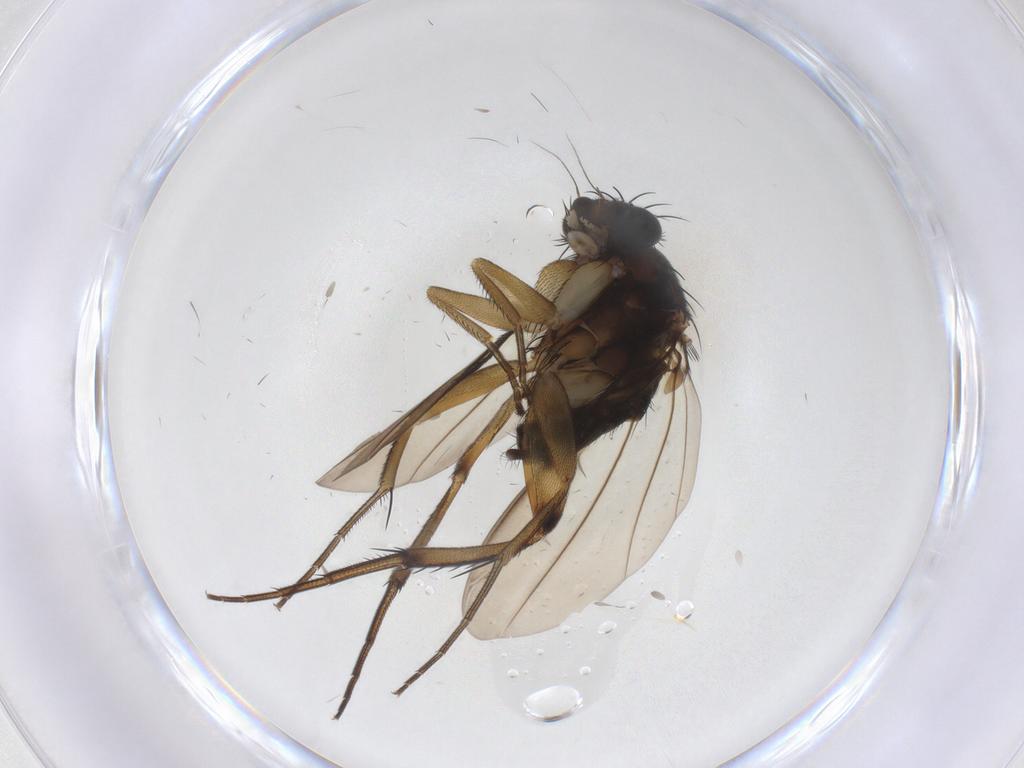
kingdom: Animalia
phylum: Arthropoda
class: Insecta
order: Diptera
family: Phoridae
